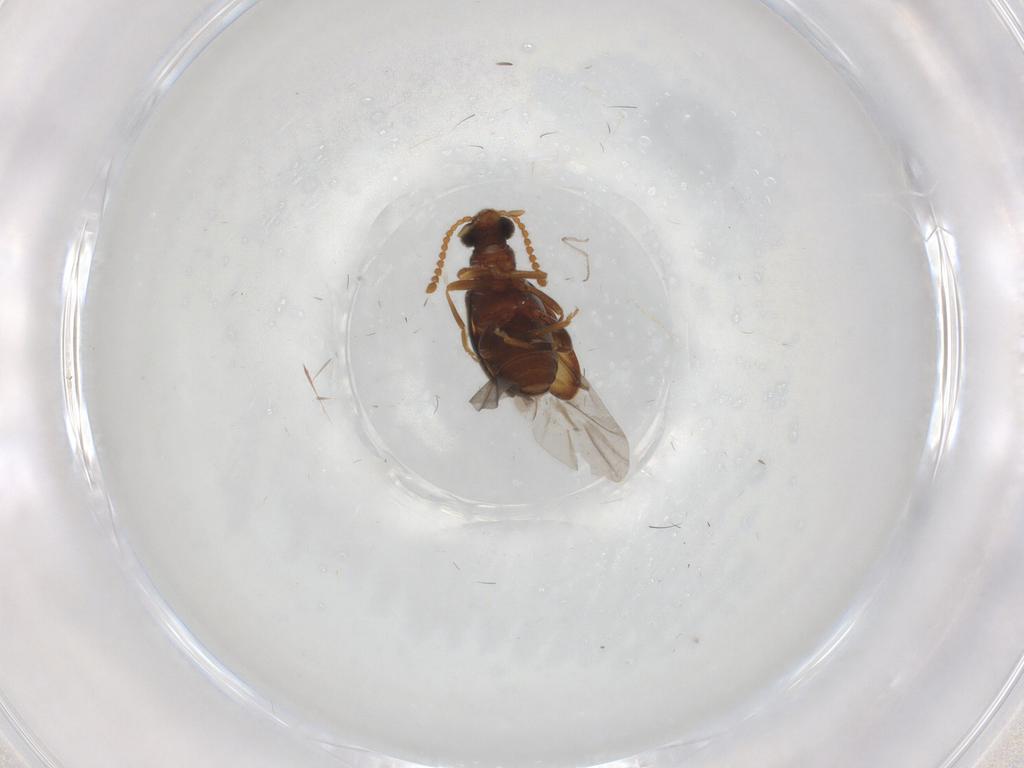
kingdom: Animalia
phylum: Arthropoda
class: Insecta
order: Coleoptera
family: Aderidae
